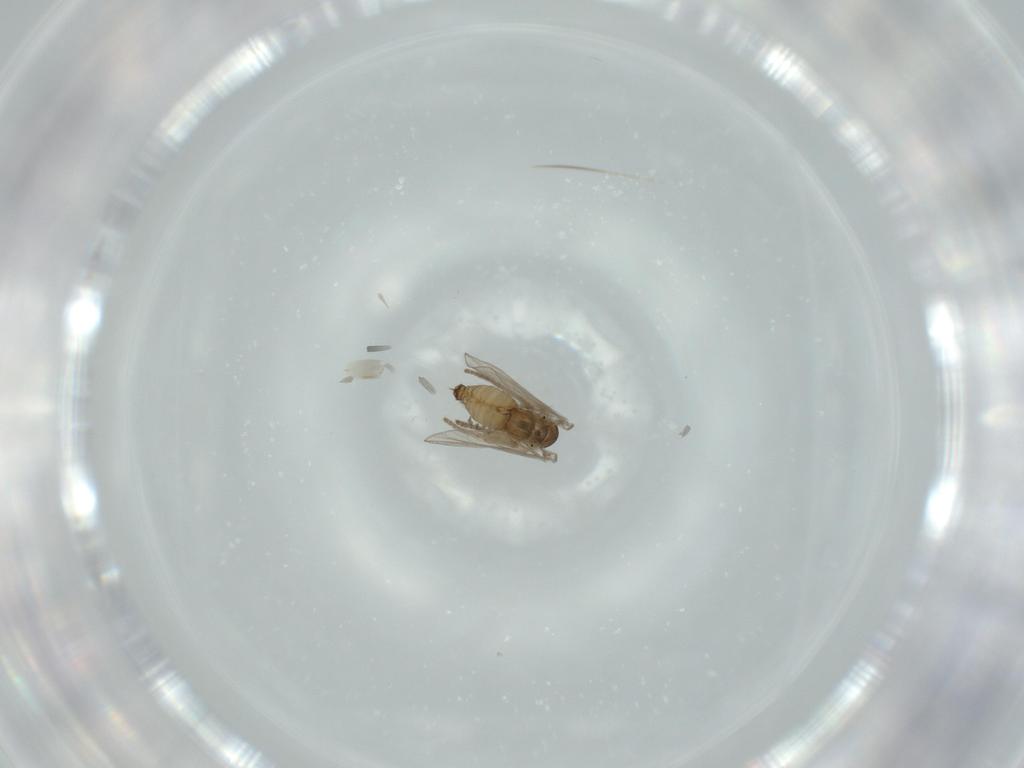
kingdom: Animalia
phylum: Arthropoda
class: Insecta
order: Diptera
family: Psychodidae
